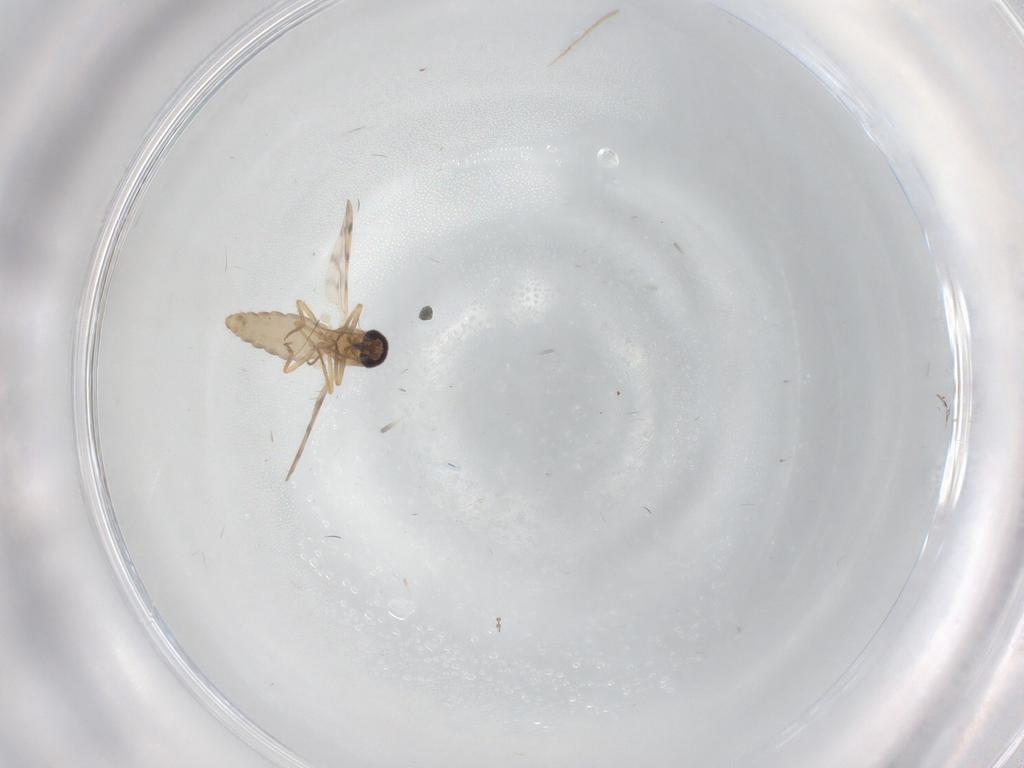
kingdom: Animalia
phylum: Arthropoda
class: Insecta
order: Diptera
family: Ceratopogonidae
